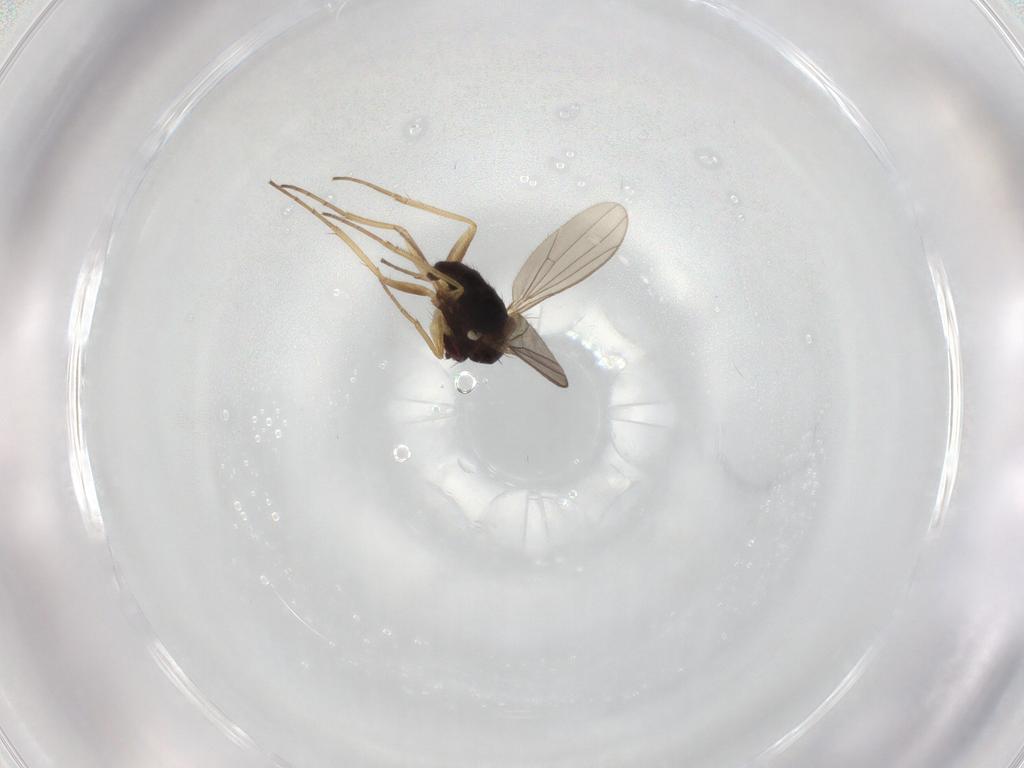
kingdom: Animalia
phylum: Arthropoda
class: Insecta
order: Diptera
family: Dolichopodidae
